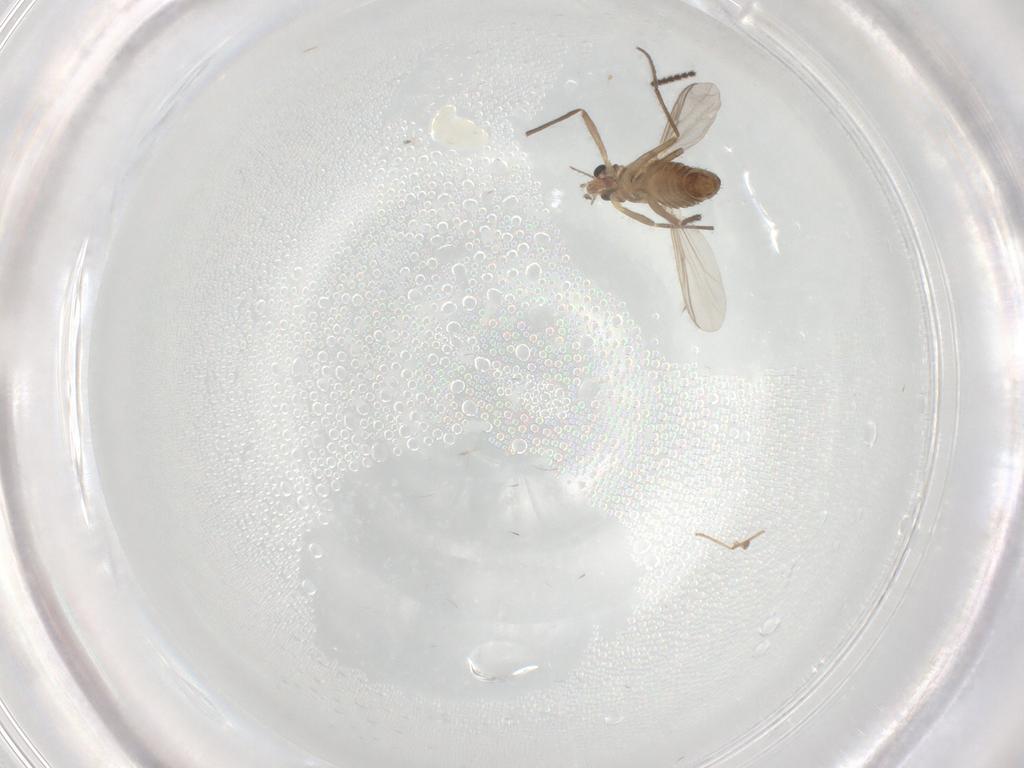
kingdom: Animalia
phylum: Arthropoda
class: Insecta
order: Diptera
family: Chironomidae
